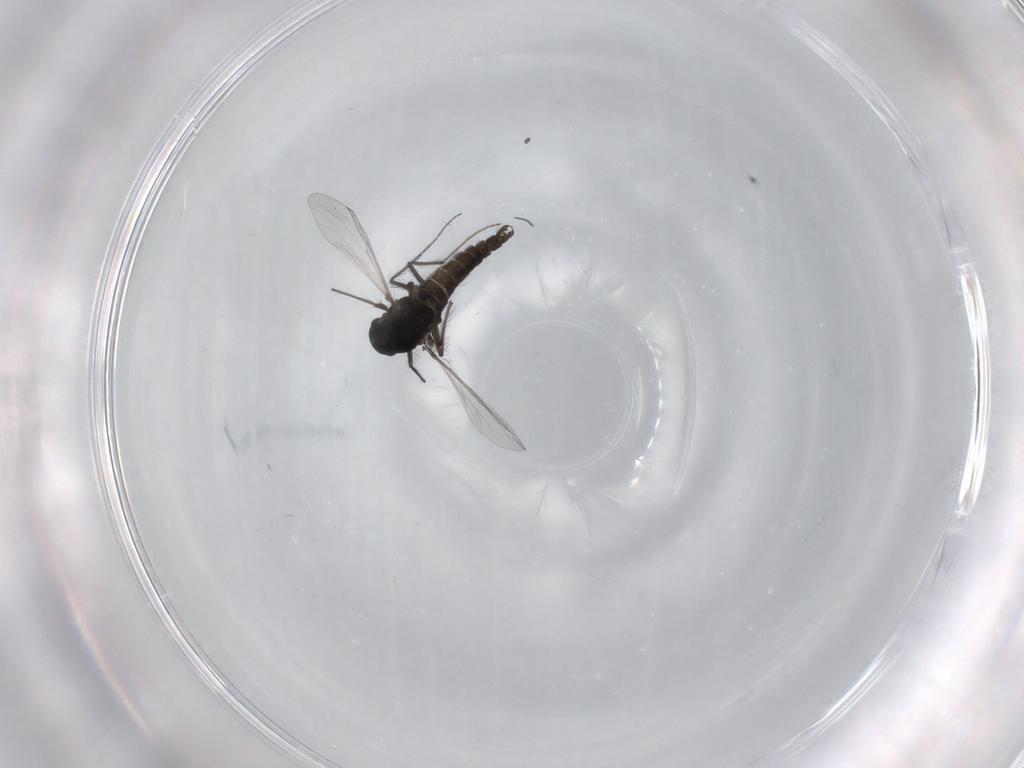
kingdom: Animalia
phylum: Arthropoda
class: Insecta
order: Diptera
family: Chironomidae
